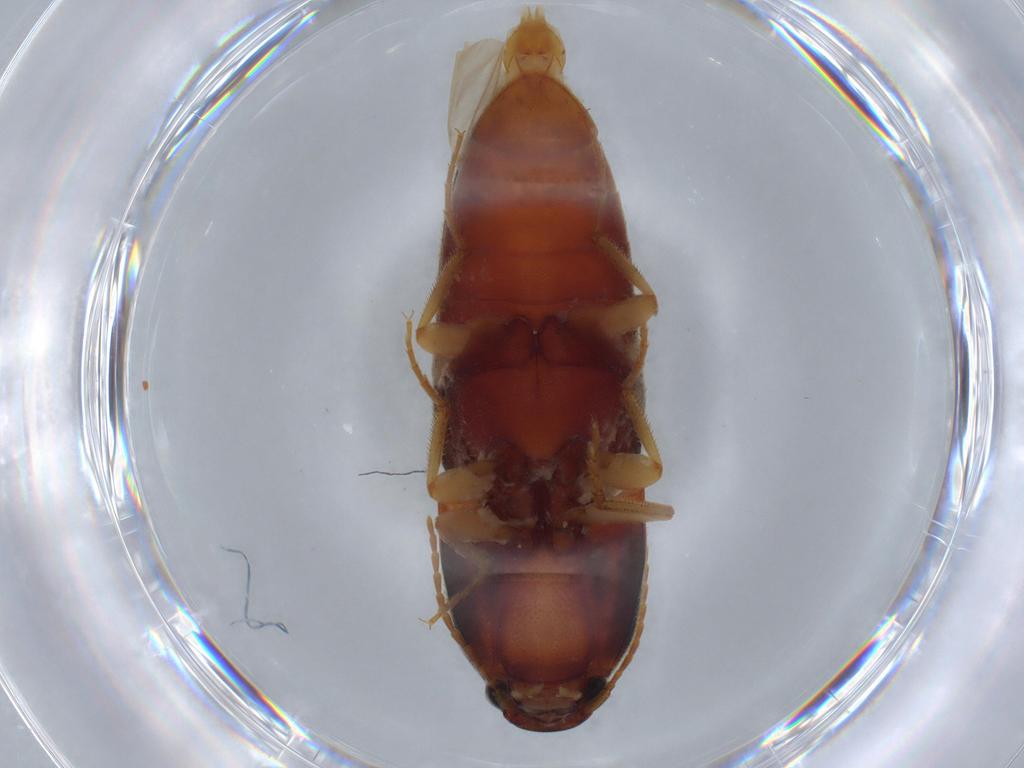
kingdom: Animalia
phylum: Arthropoda
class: Insecta
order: Coleoptera
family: Elateridae
